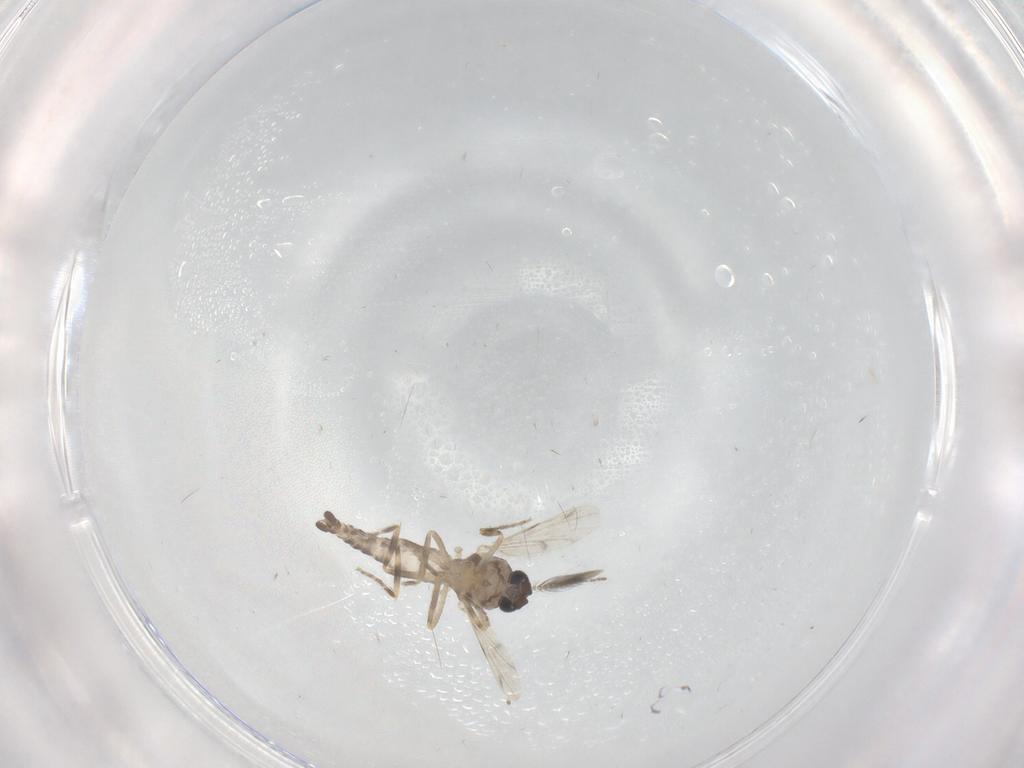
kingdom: Animalia
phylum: Arthropoda
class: Insecta
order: Diptera
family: Ceratopogonidae
